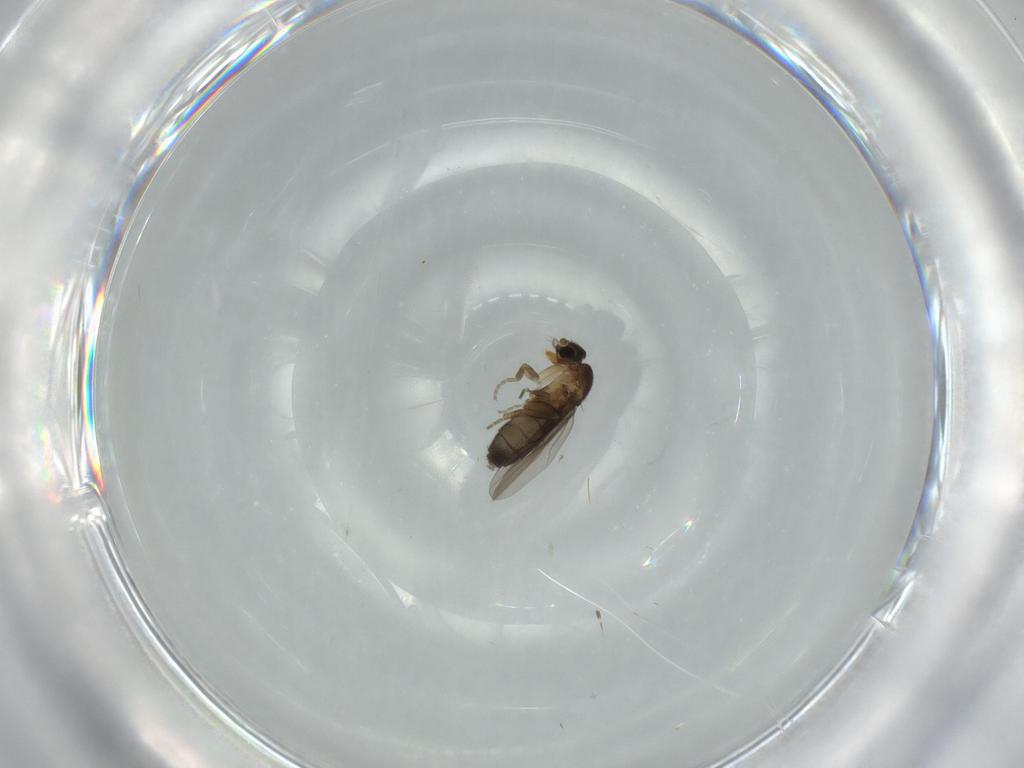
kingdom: Animalia
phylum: Arthropoda
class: Insecta
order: Diptera
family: Phoridae
